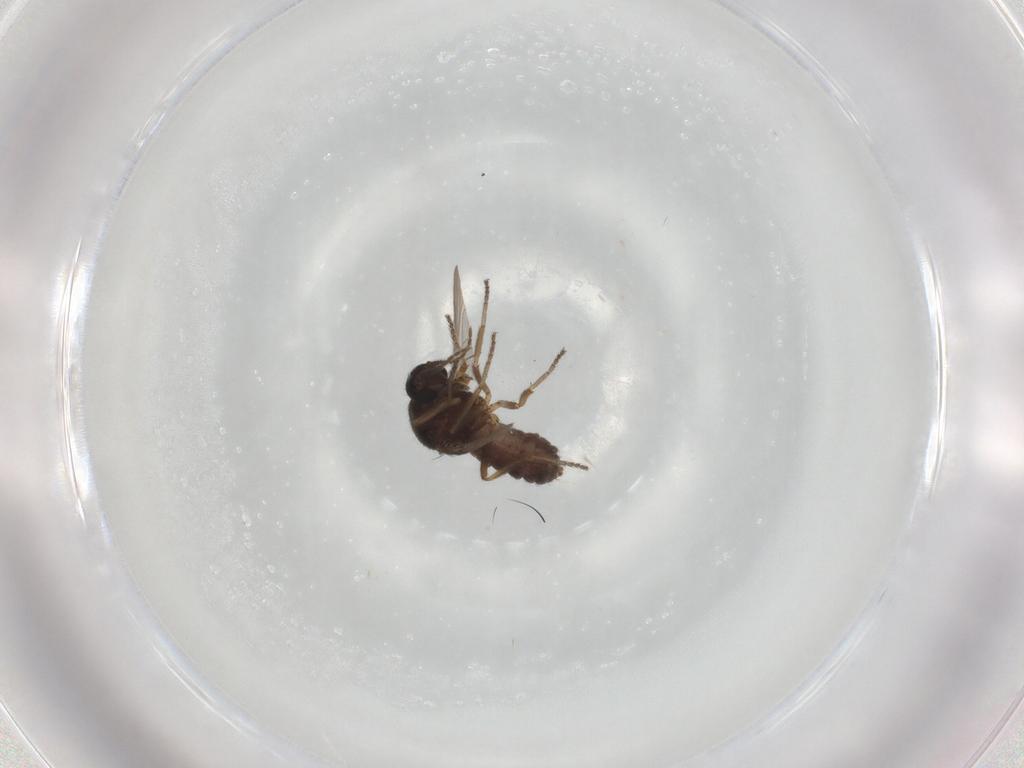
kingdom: Animalia
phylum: Arthropoda
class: Insecta
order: Diptera
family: Ceratopogonidae
